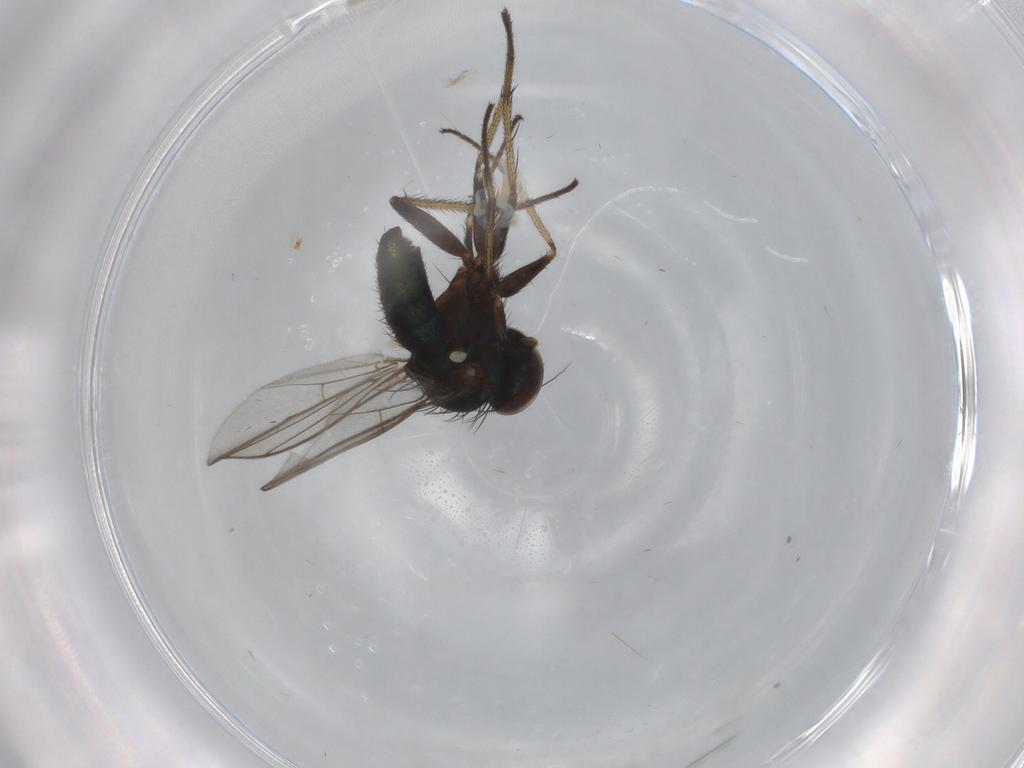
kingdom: Animalia
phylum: Arthropoda
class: Insecta
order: Diptera
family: Dolichopodidae
